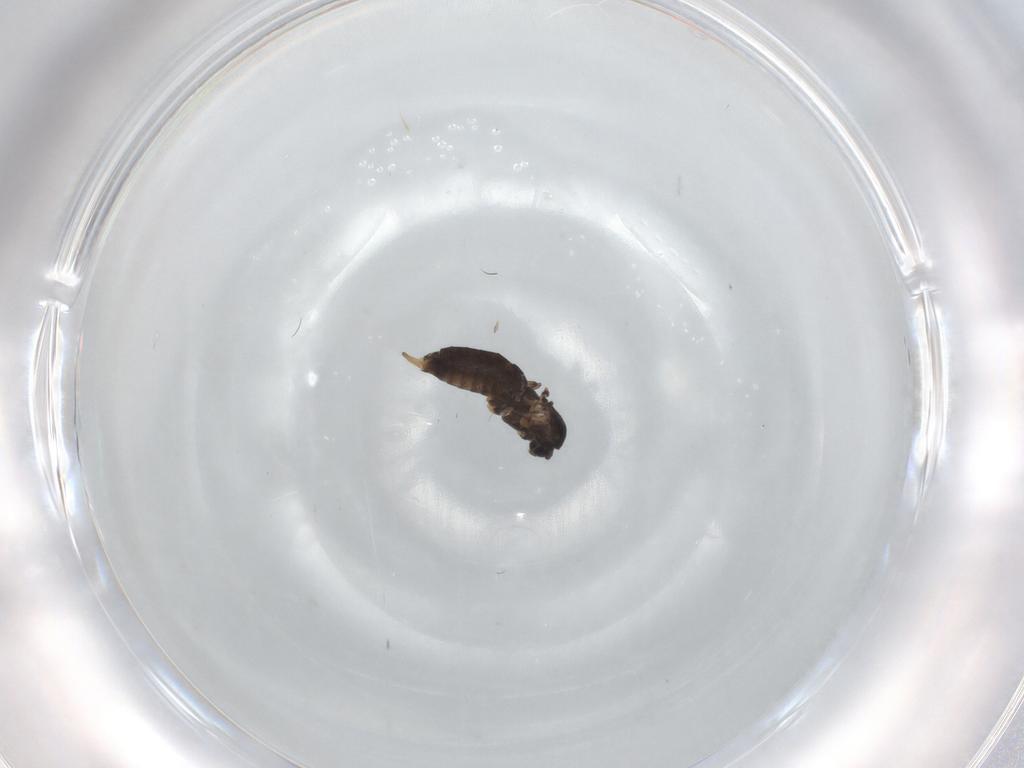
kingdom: Animalia
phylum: Arthropoda
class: Insecta
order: Diptera
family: Chironomidae
